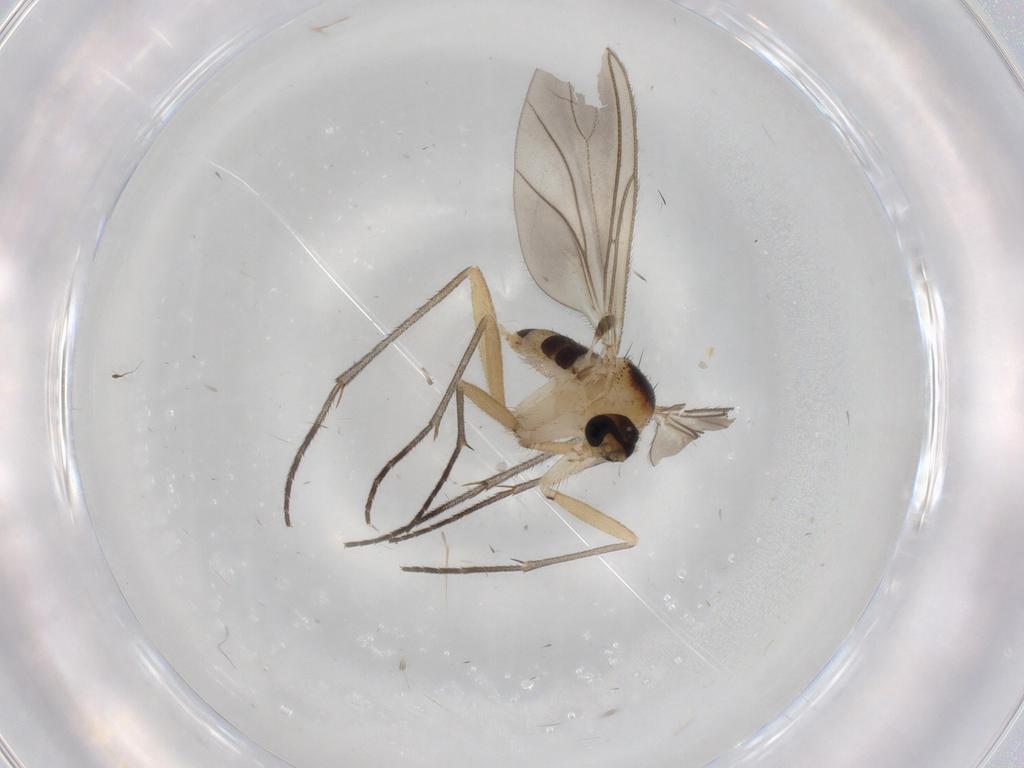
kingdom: Animalia
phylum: Arthropoda
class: Insecta
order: Diptera
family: Sciaridae
